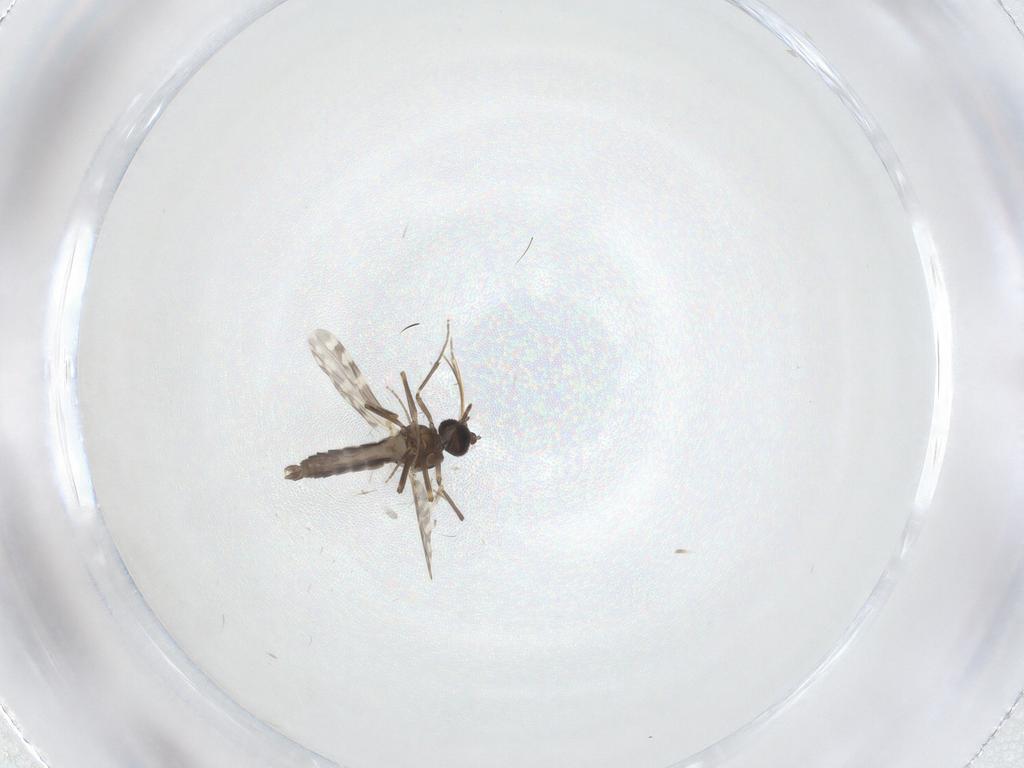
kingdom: Animalia
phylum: Arthropoda
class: Insecta
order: Diptera
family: Ceratopogonidae
